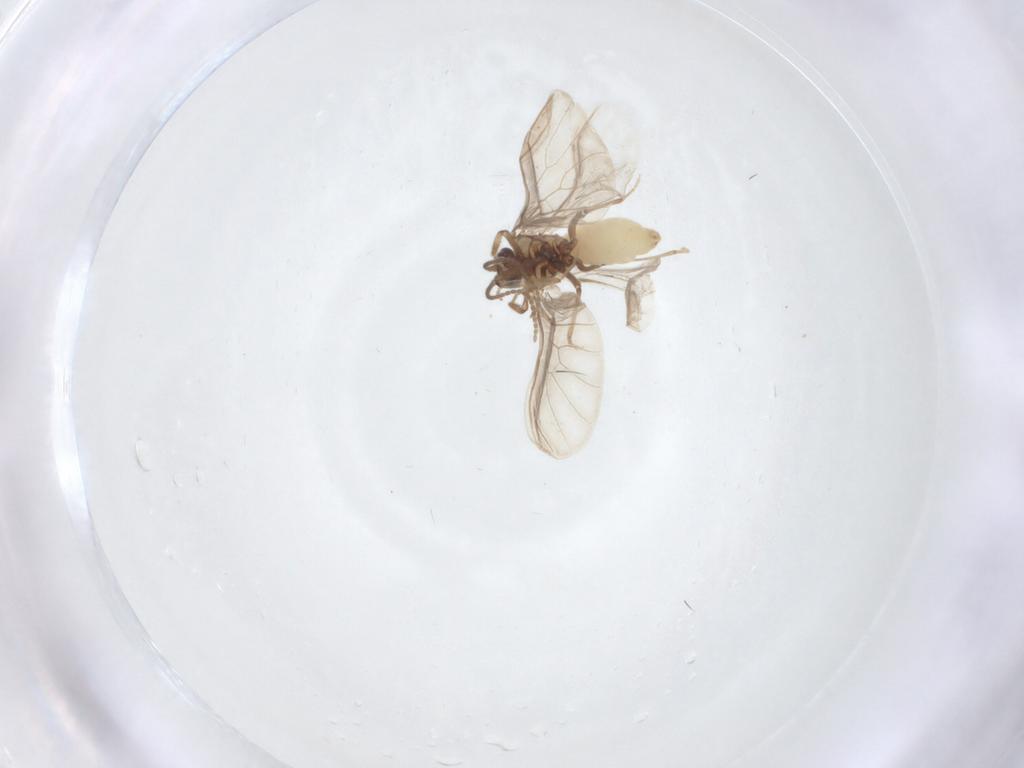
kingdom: Animalia
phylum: Arthropoda
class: Insecta
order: Neuroptera
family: Coniopterygidae
